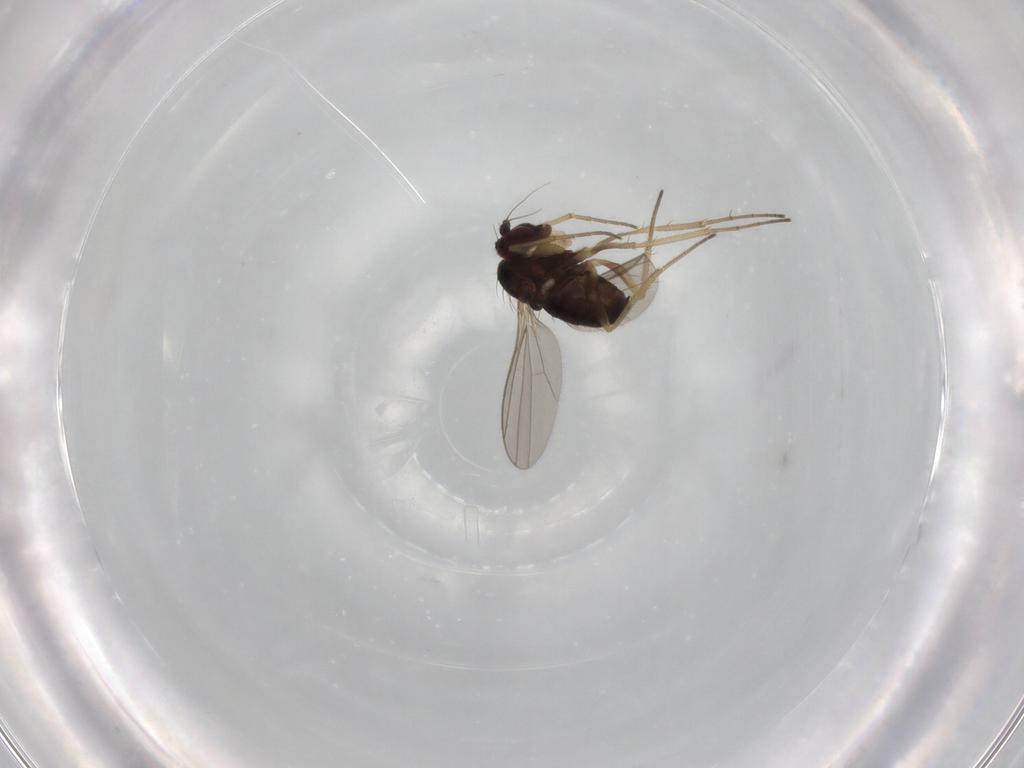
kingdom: Animalia
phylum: Arthropoda
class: Insecta
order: Diptera
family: Dolichopodidae
